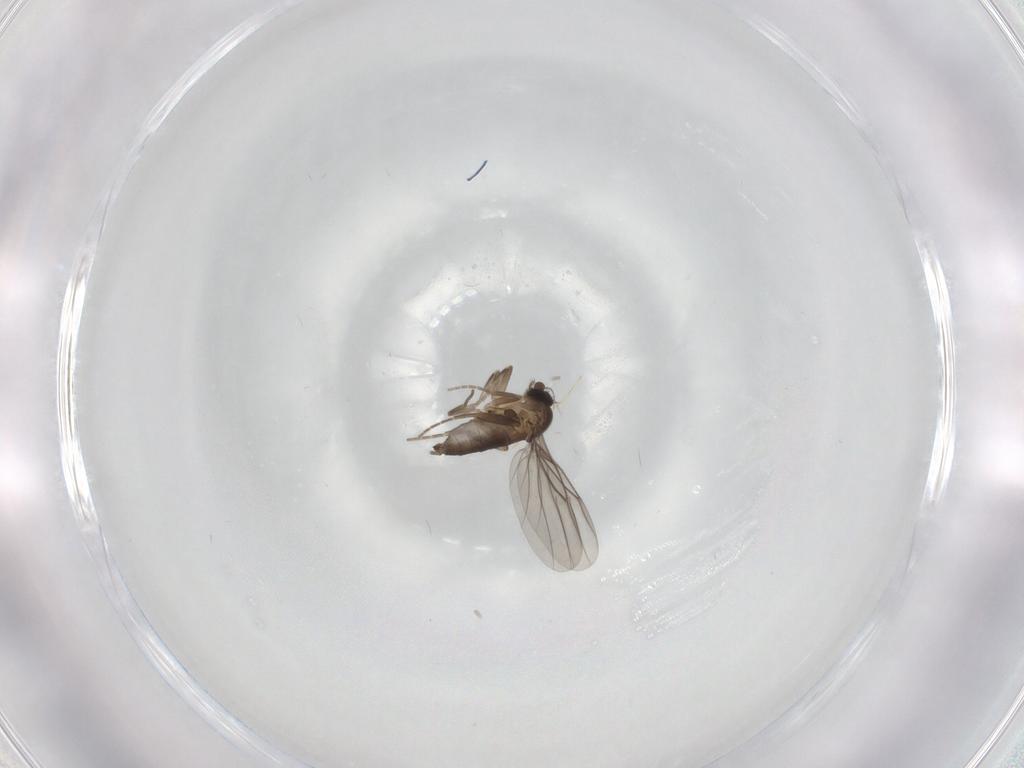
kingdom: Animalia
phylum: Arthropoda
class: Insecta
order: Diptera
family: Phoridae
